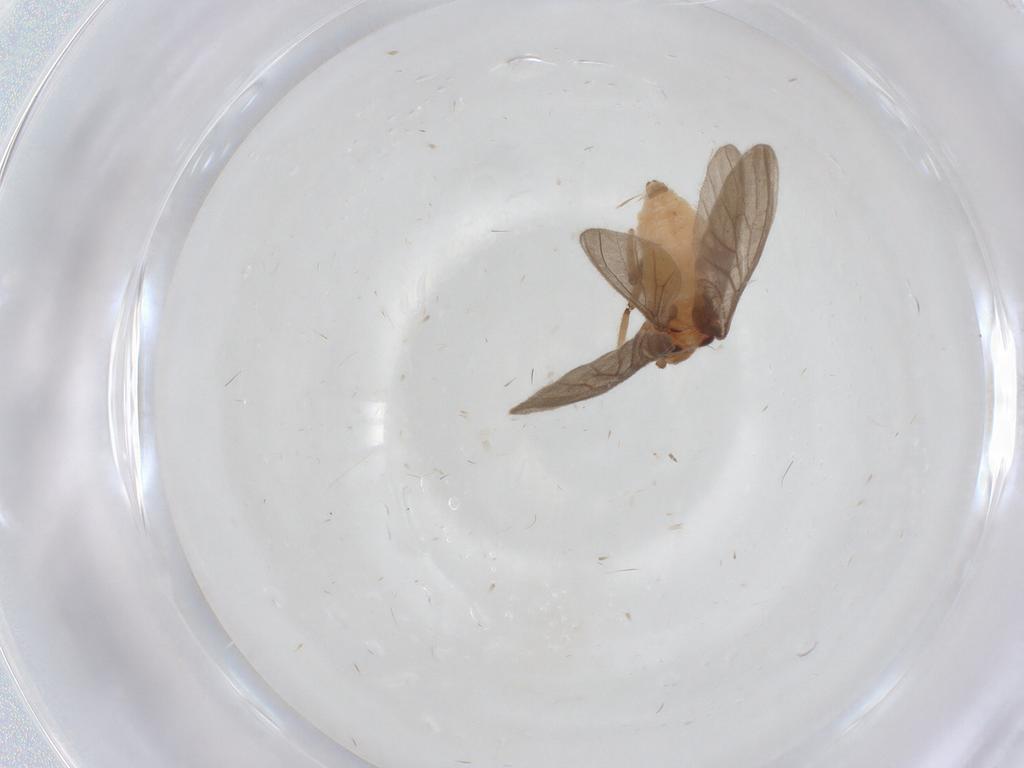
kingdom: Animalia
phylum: Arthropoda
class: Insecta
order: Neuroptera
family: Coniopterygidae
